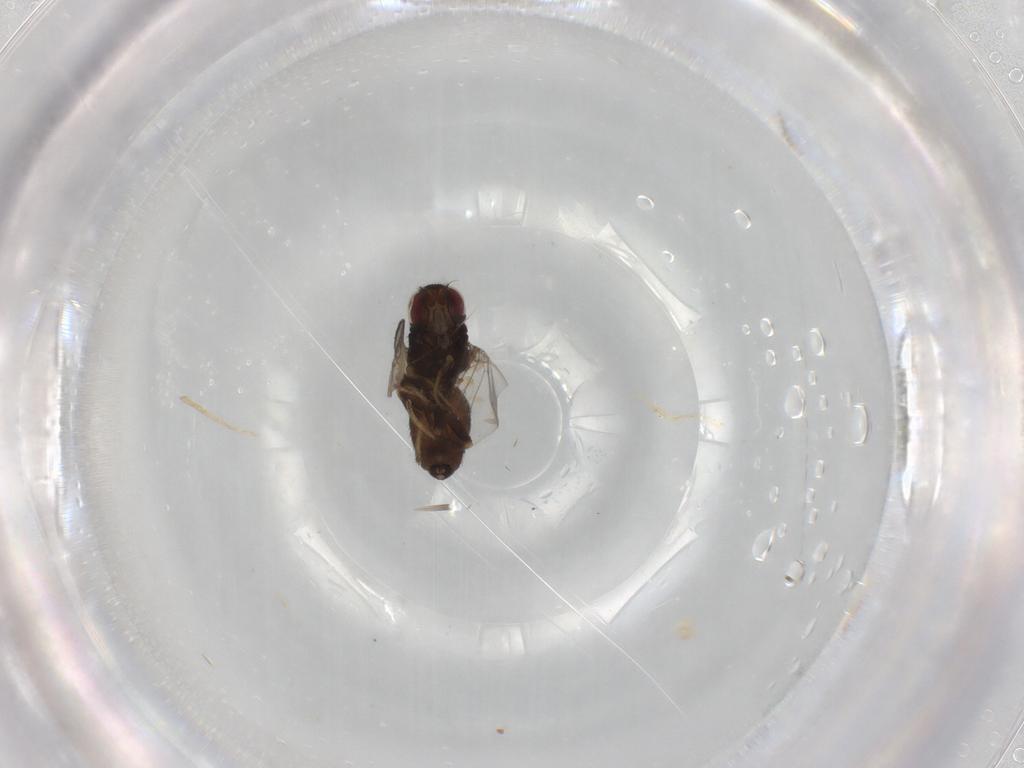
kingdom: Animalia
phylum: Arthropoda
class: Insecta
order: Diptera
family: Chloropidae
